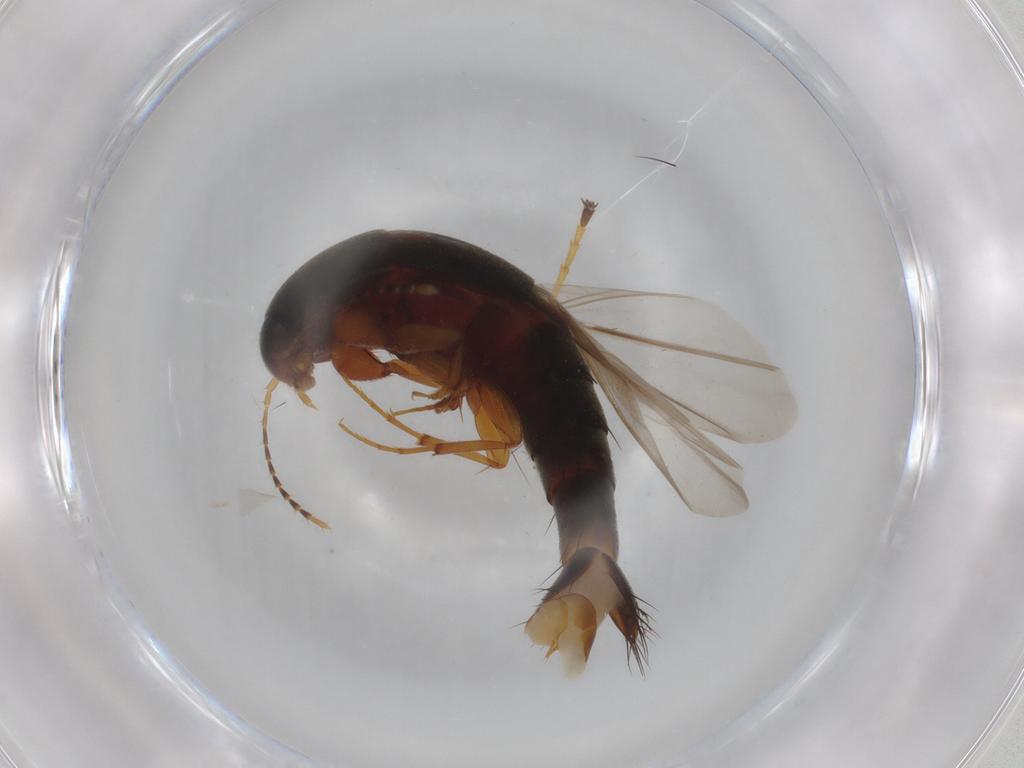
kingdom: Animalia
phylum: Arthropoda
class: Insecta
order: Coleoptera
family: Staphylinidae
